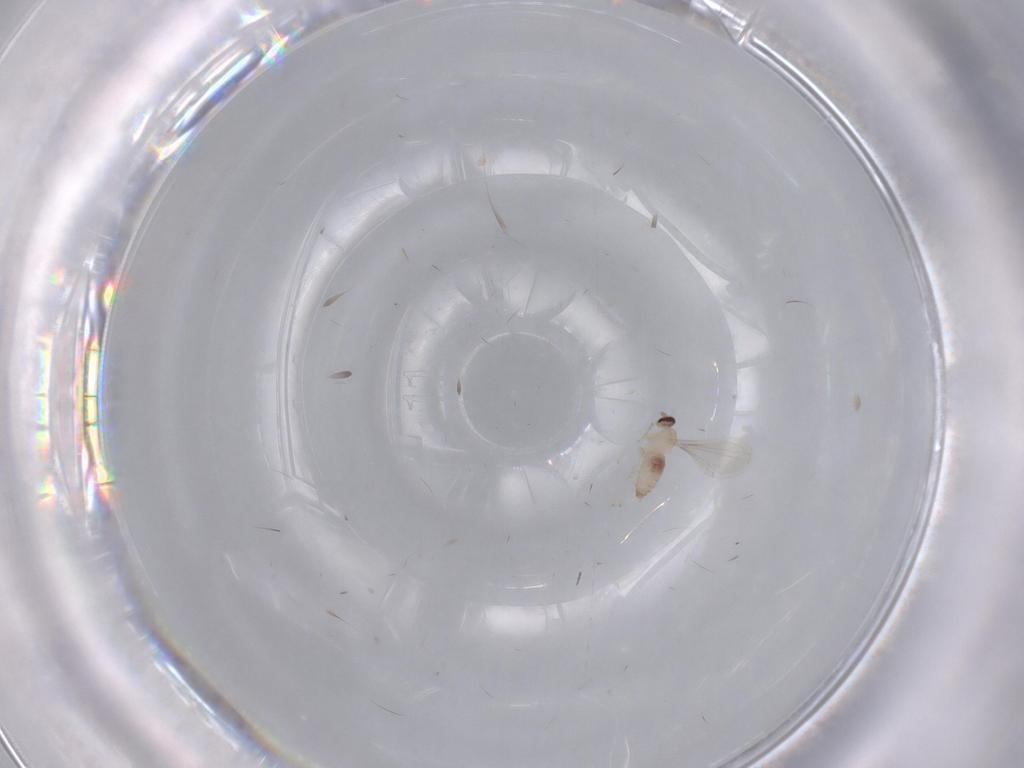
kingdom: Animalia
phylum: Arthropoda
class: Insecta
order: Diptera
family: Cecidomyiidae
